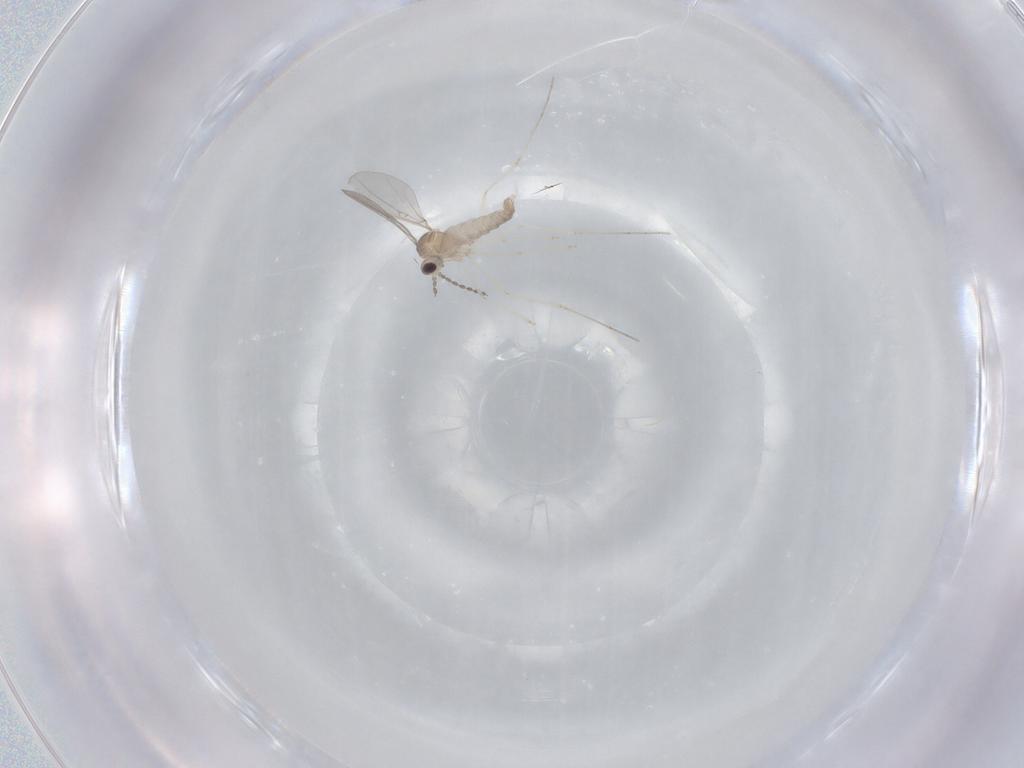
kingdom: Animalia
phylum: Arthropoda
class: Insecta
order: Diptera
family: Cecidomyiidae
